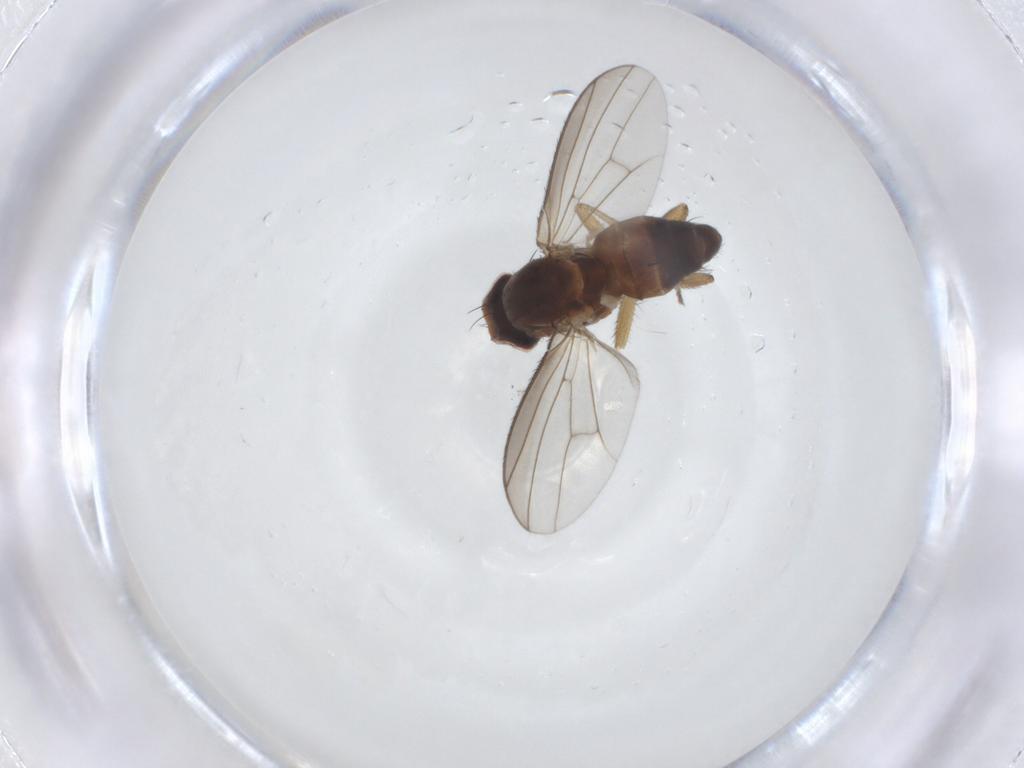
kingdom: Animalia
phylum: Arthropoda
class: Insecta
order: Diptera
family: Heleomyzidae
